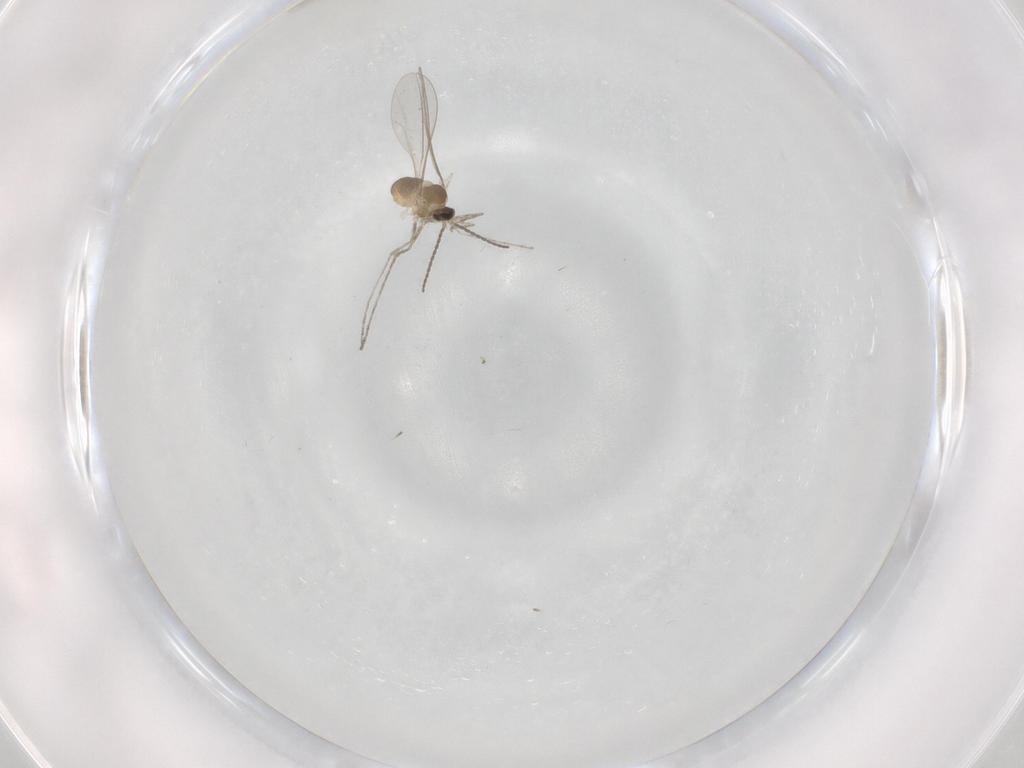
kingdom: Animalia
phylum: Arthropoda
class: Insecta
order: Diptera
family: Cecidomyiidae
